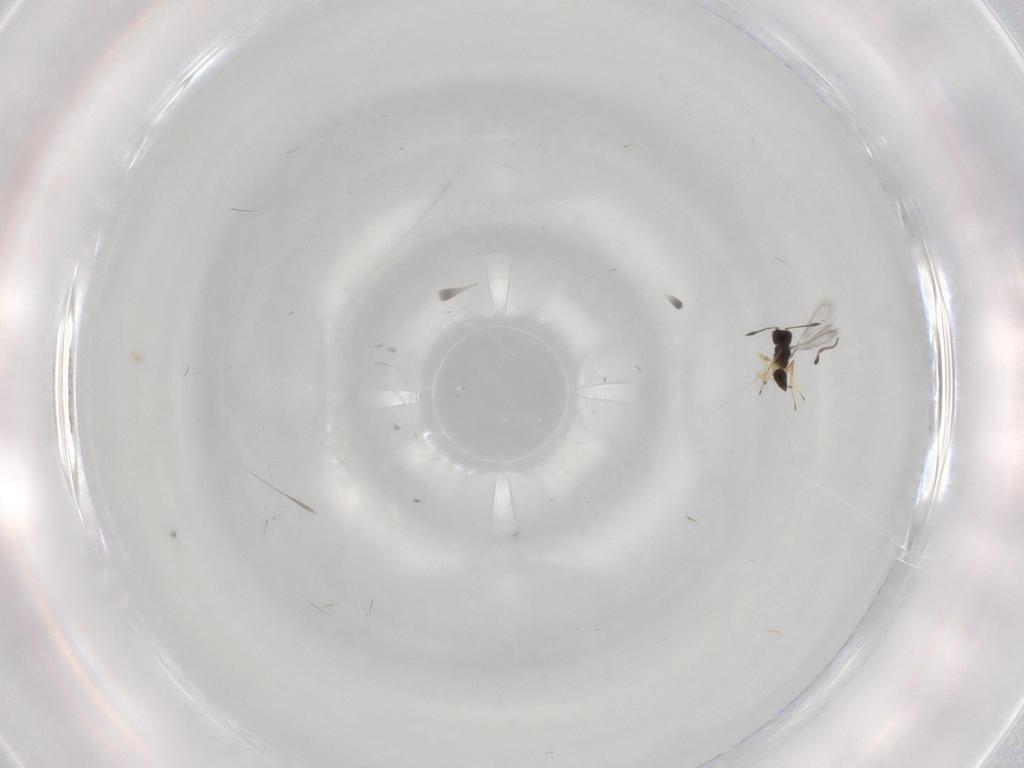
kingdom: Animalia
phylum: Arthropoda
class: Insecta
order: Hymenoptera
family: Mymaridae
